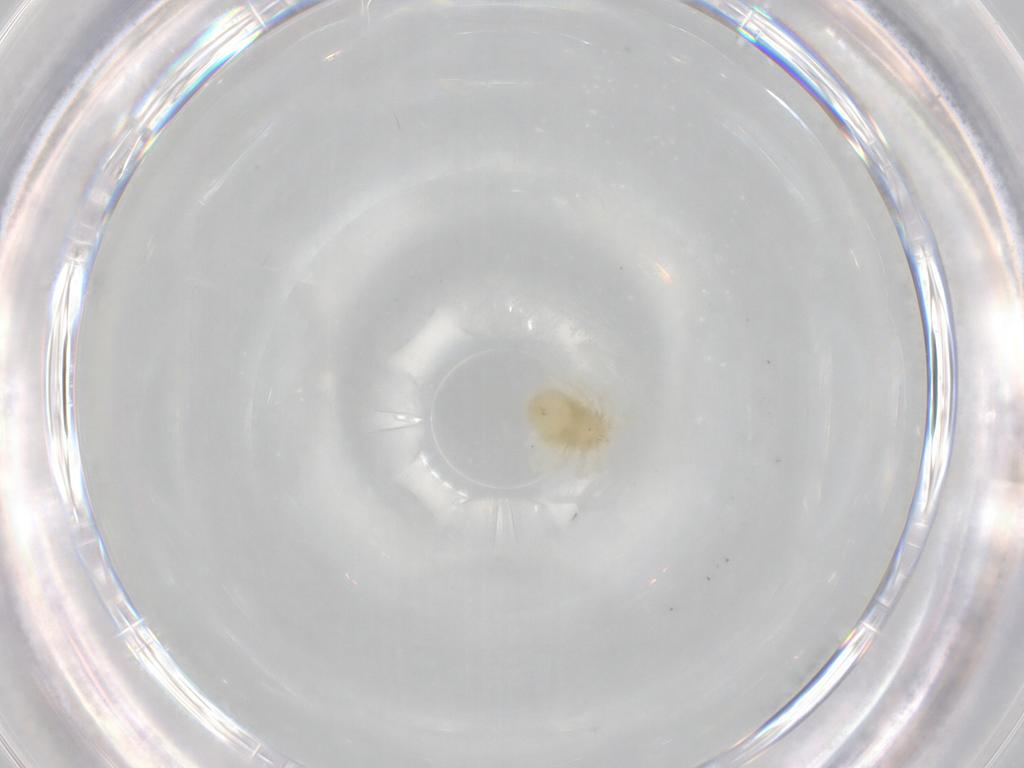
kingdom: Animalia
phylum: Arthropoda
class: Arachnida
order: Trombidiformes
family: Anystidae
